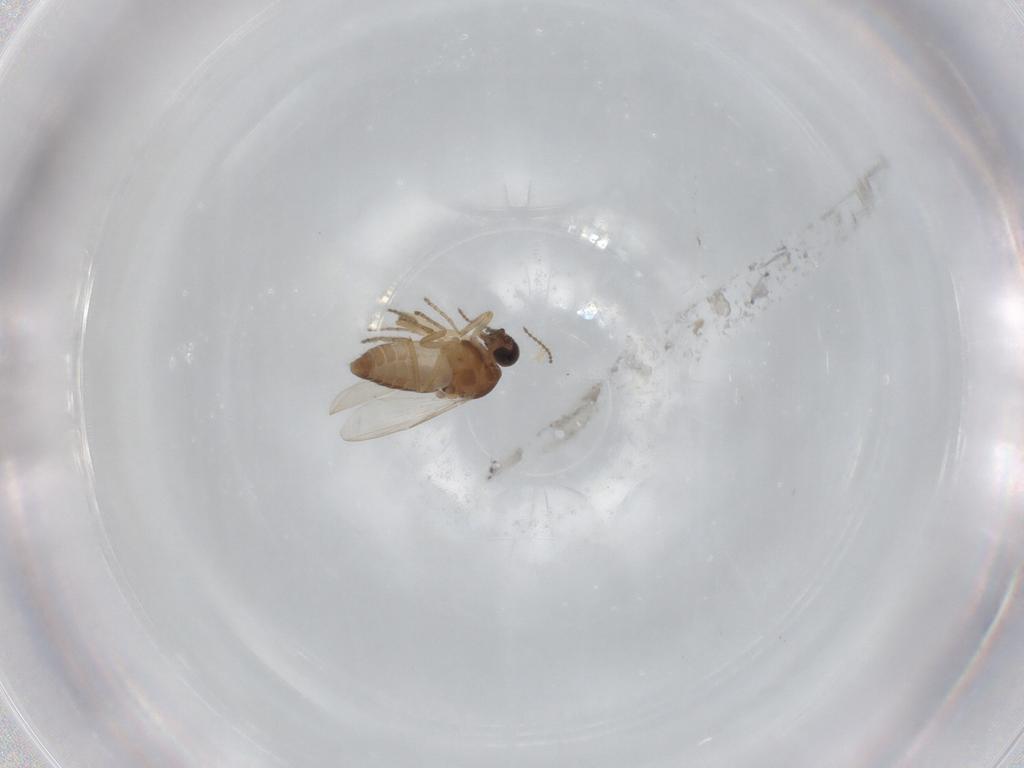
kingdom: Animalia
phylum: Arthropoda
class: Insecta
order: Diptera
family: Ceratopogonidae
